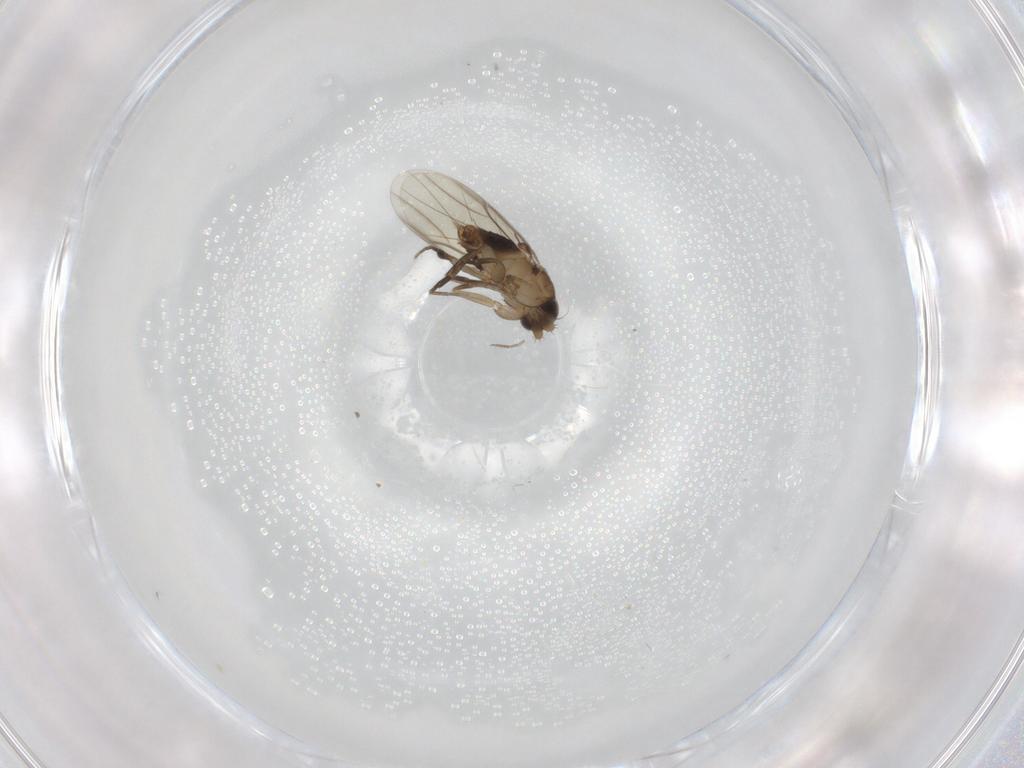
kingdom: Animalia
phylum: Arthropoda
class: Insecta
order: Diptera
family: Phoridae
